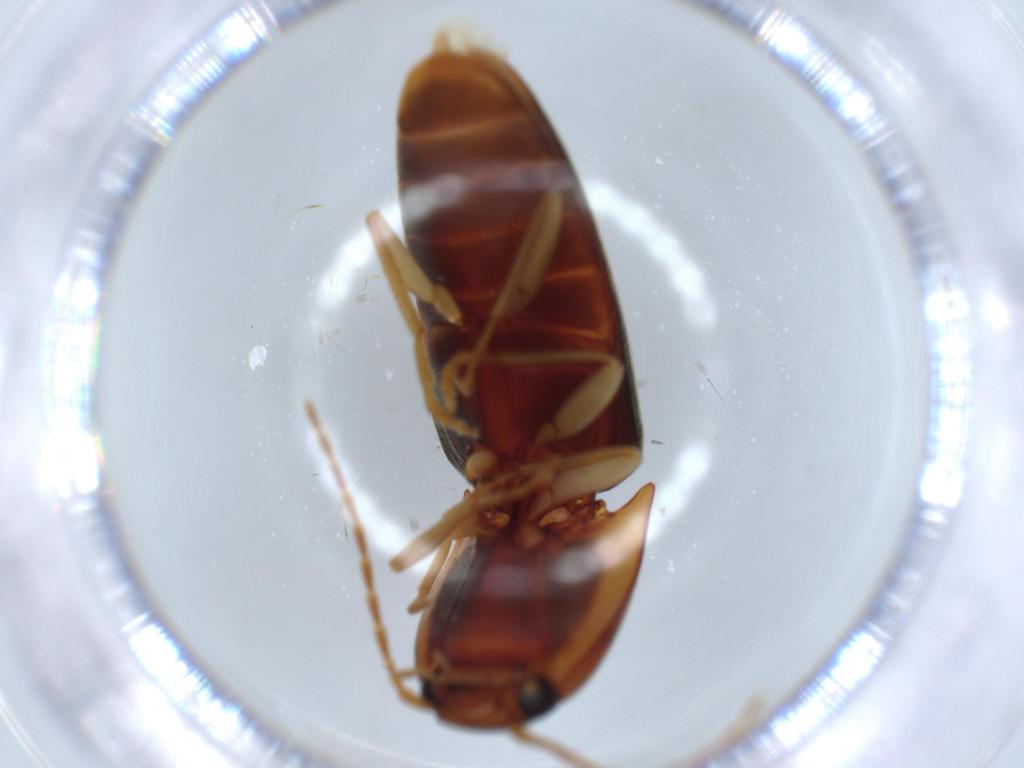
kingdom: Animalia
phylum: Arthropoda
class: Insecta
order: Coleoptera
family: Elateridae
